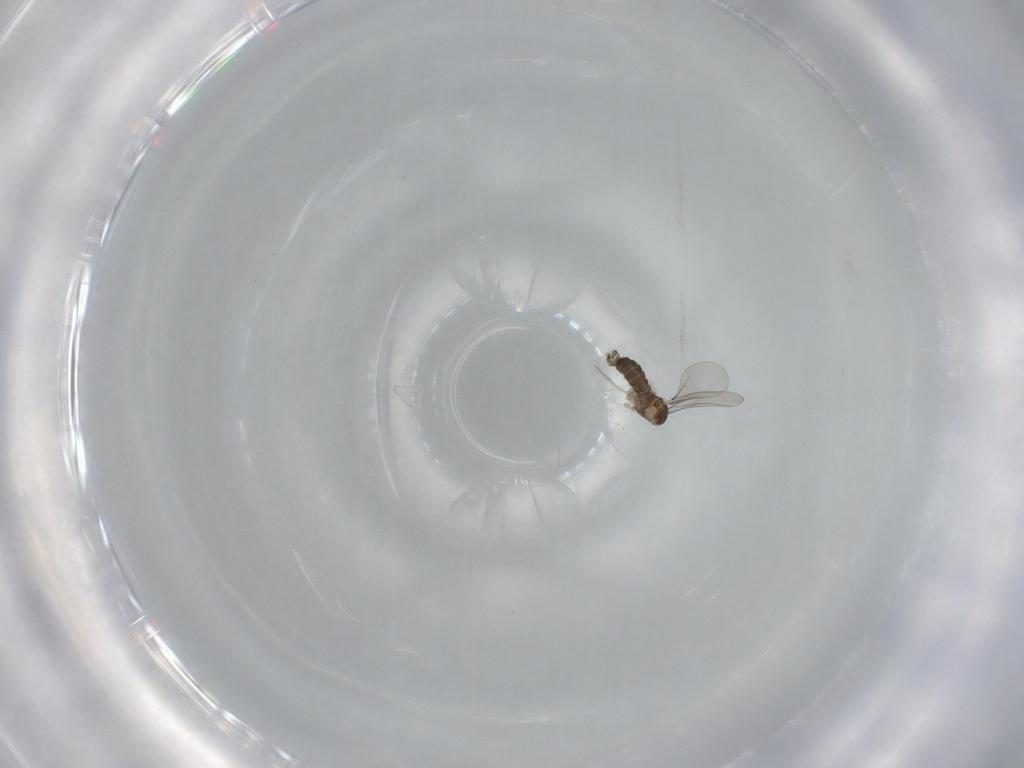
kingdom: Animalia
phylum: Arthropoda
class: Insecta
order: Diptera
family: Cecidomyiidae
